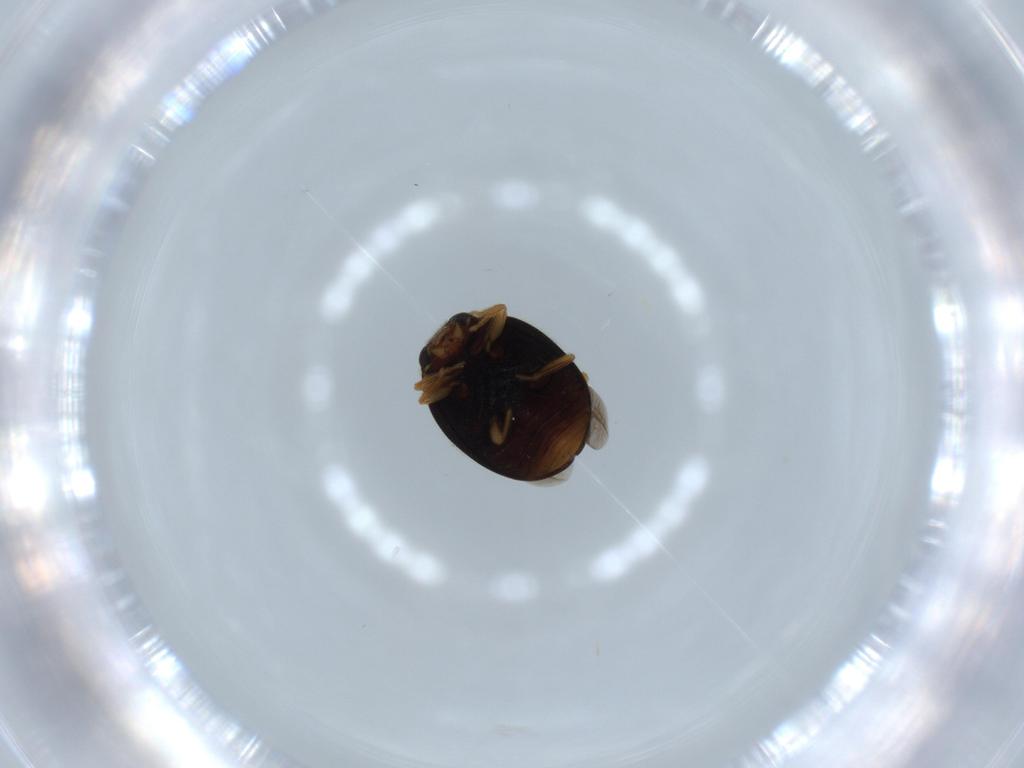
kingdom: Animalia
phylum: Arthropoda
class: Insecta
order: Coleoptera
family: Coccinellidae
